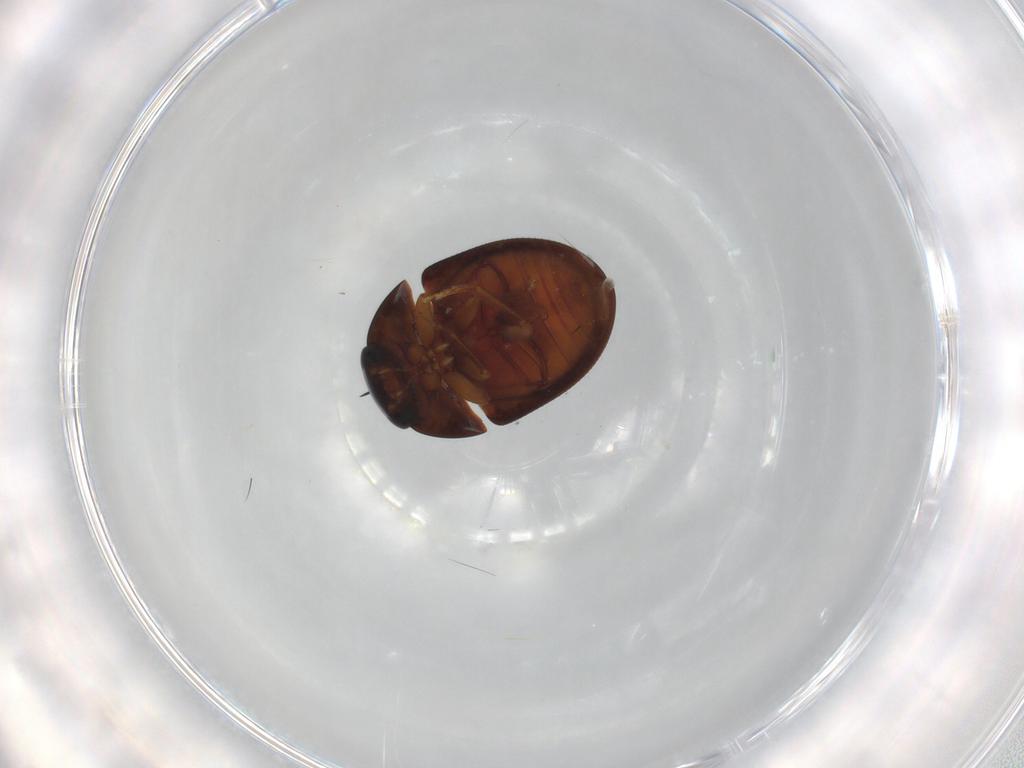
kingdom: Animalia
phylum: Arthropoda
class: Insecta
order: Coleoptera
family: Phalacridae
